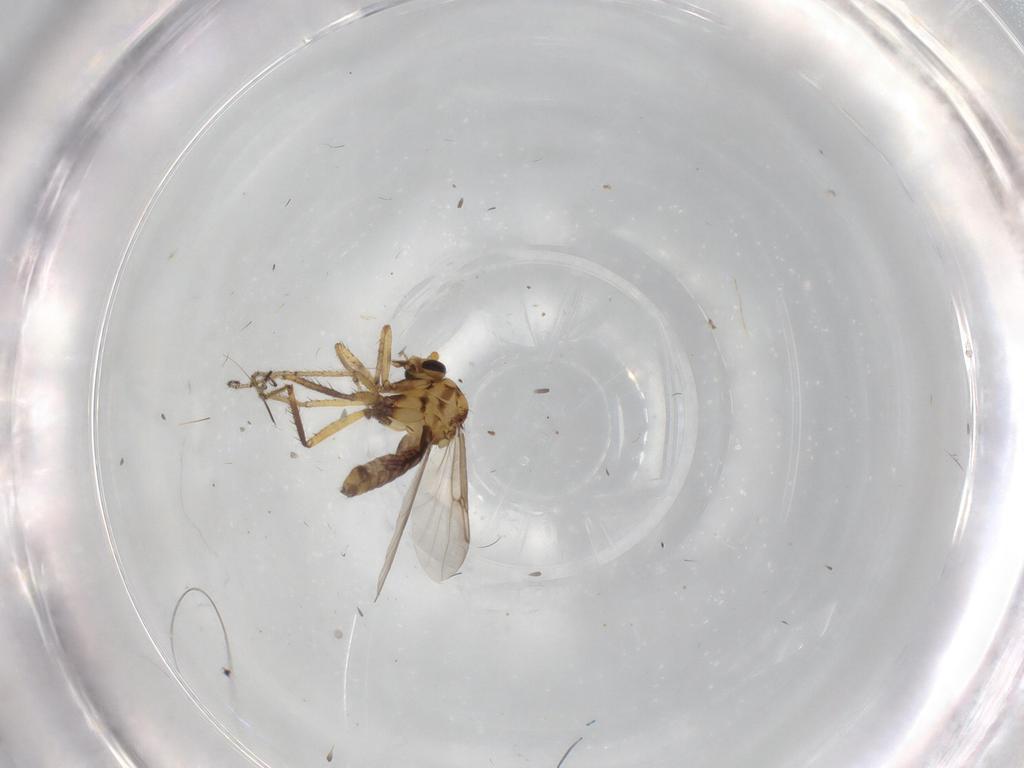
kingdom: Animalia
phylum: Arthropoda
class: Insecta
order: Diptera
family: Ceratopogonidae
